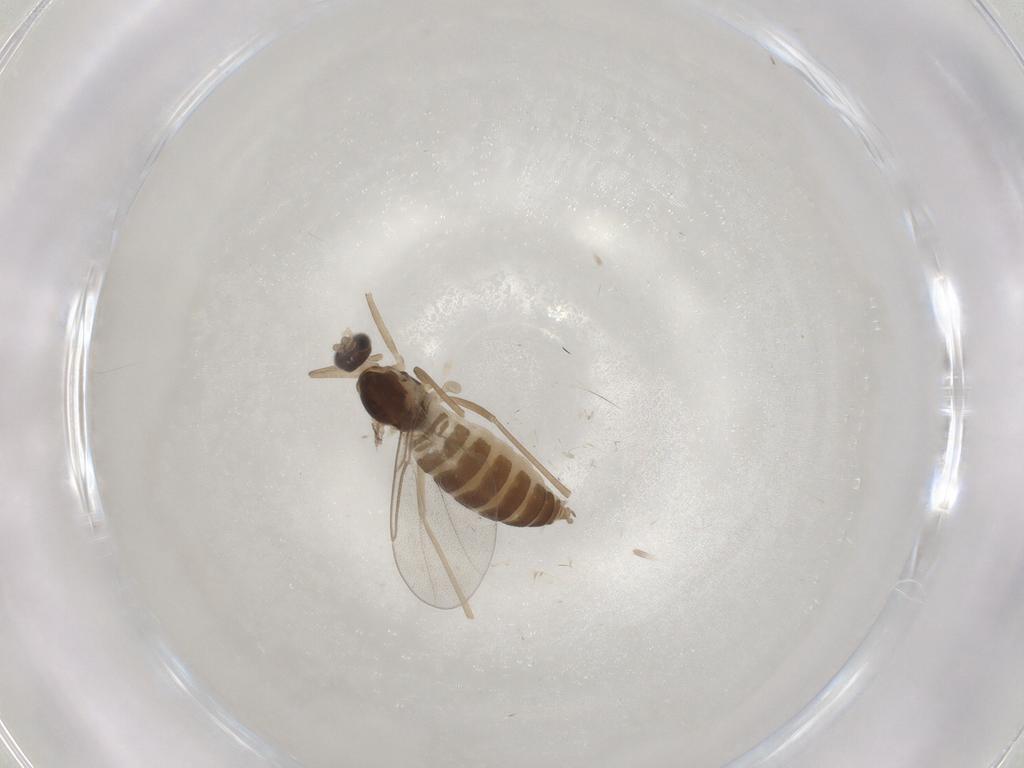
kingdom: Animalia
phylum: Arthropoda
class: Insecta
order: Diptera
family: Cecidomyiidae
